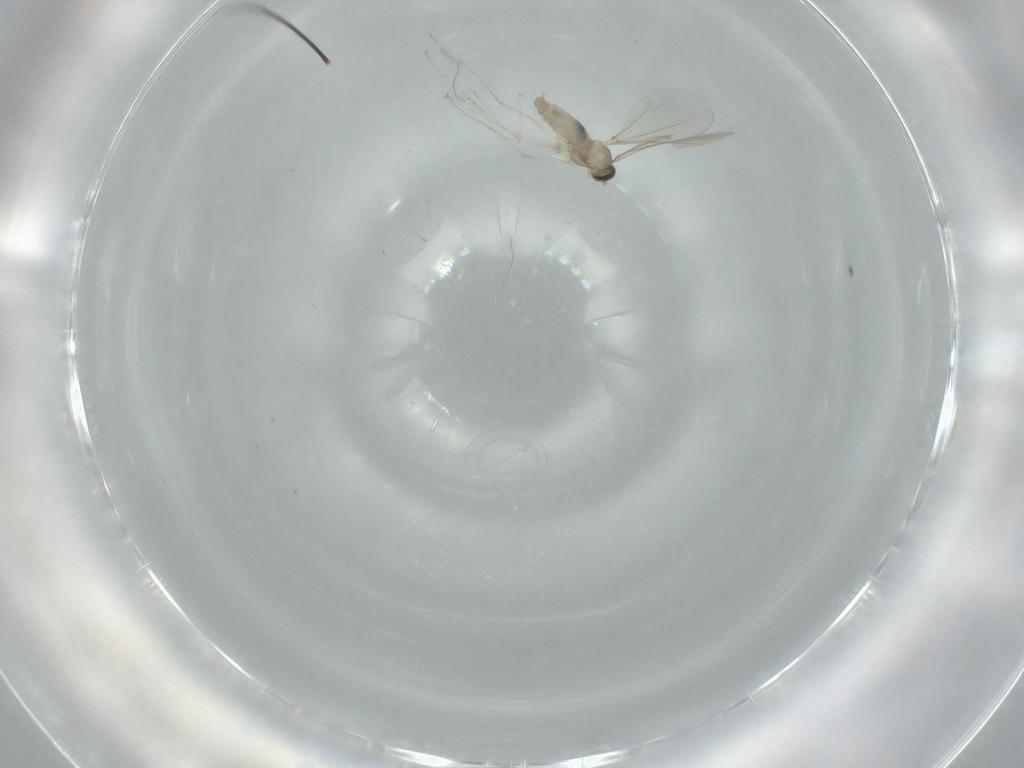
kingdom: Animalia
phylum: Arthropoda
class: Insecta
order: Diptera
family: Cecidomyiidae
